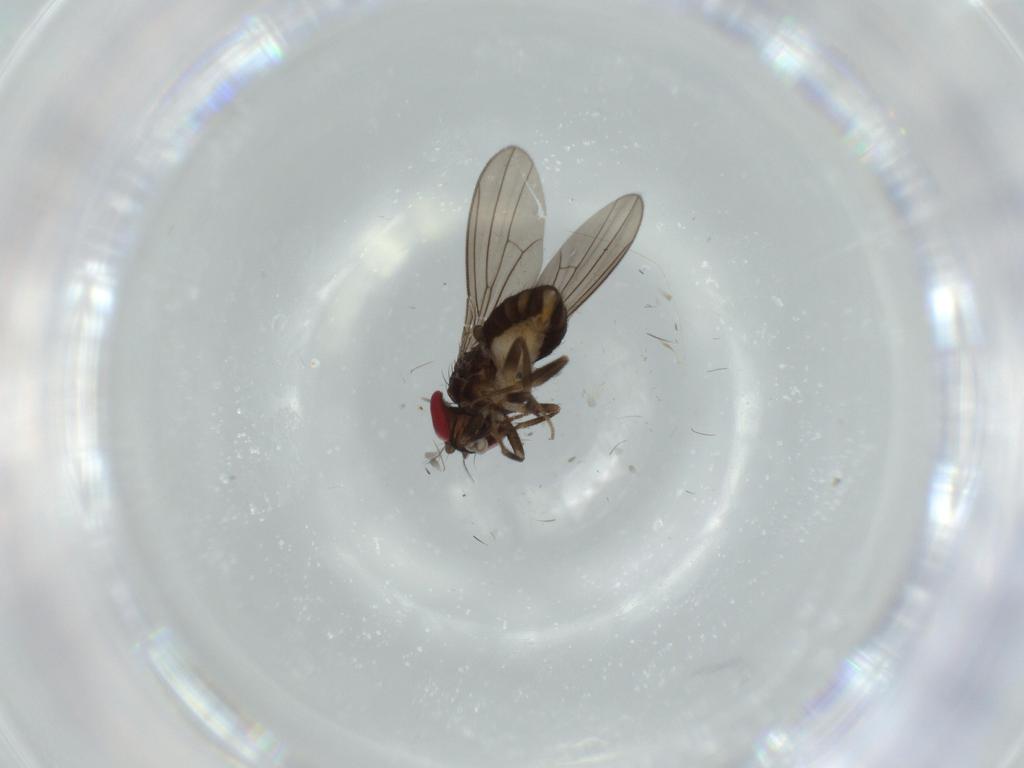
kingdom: Animalia
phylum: Arthropoda
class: Insecta
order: Diptera
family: Drosophilidae
